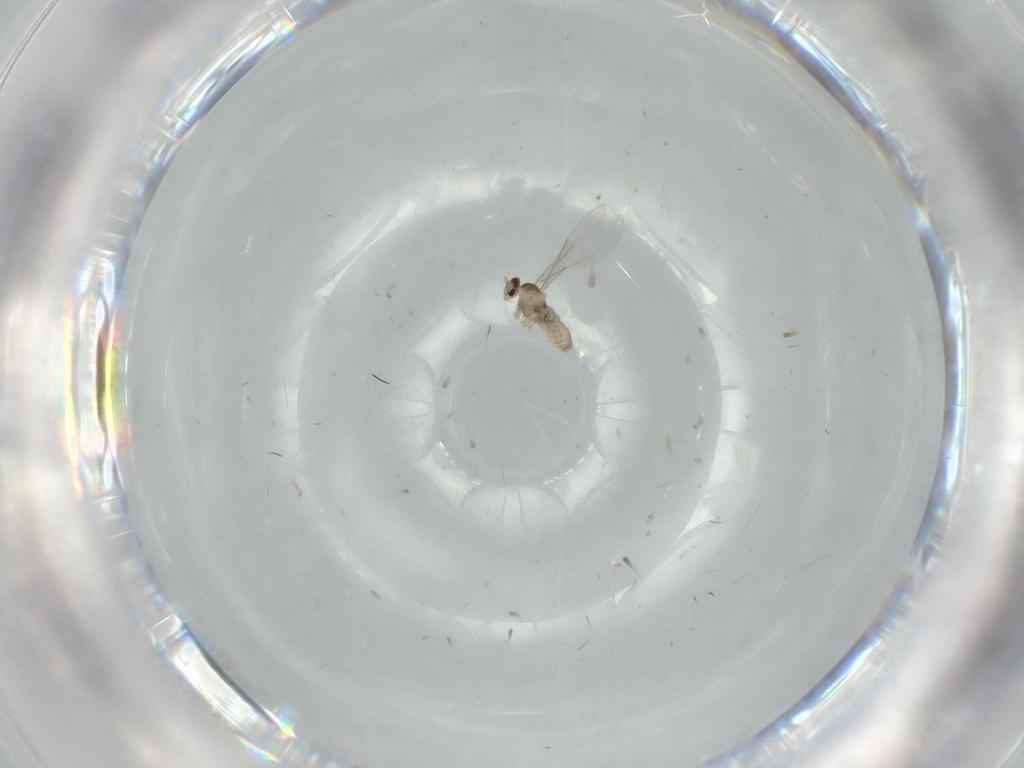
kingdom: Animalia
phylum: Arthropoda
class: Insecta
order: Diptera
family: Cecidomyiidae
